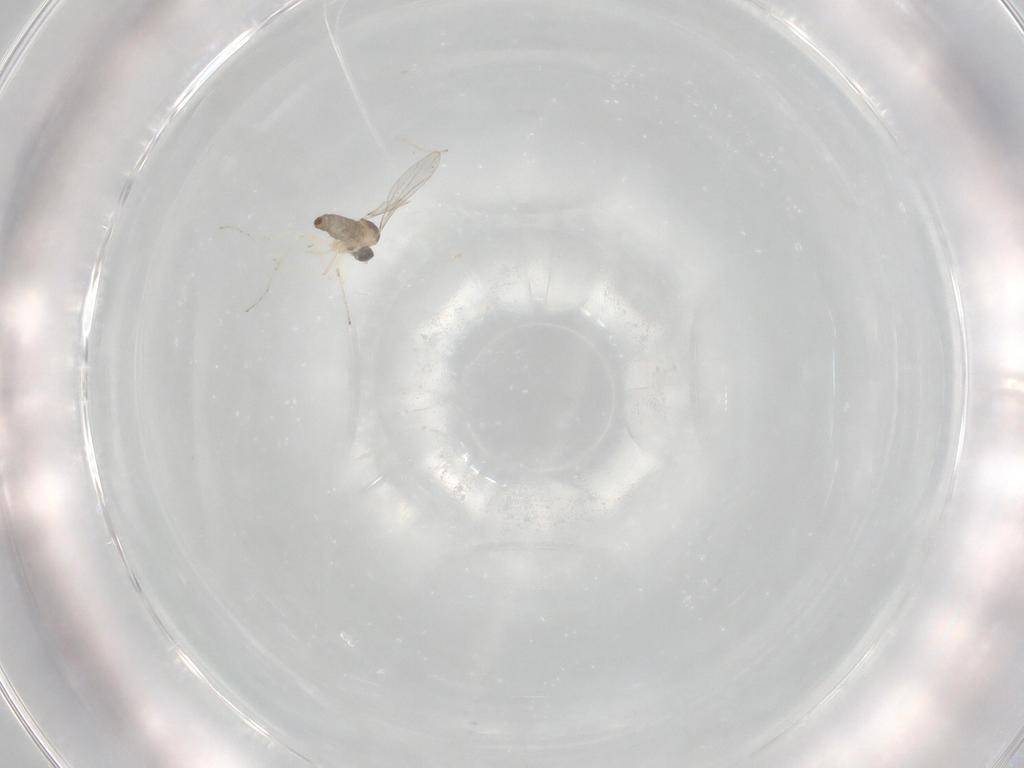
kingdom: Animalia
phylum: Arthropoda
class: Insecta
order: Diptera
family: Cecidomyiidae
